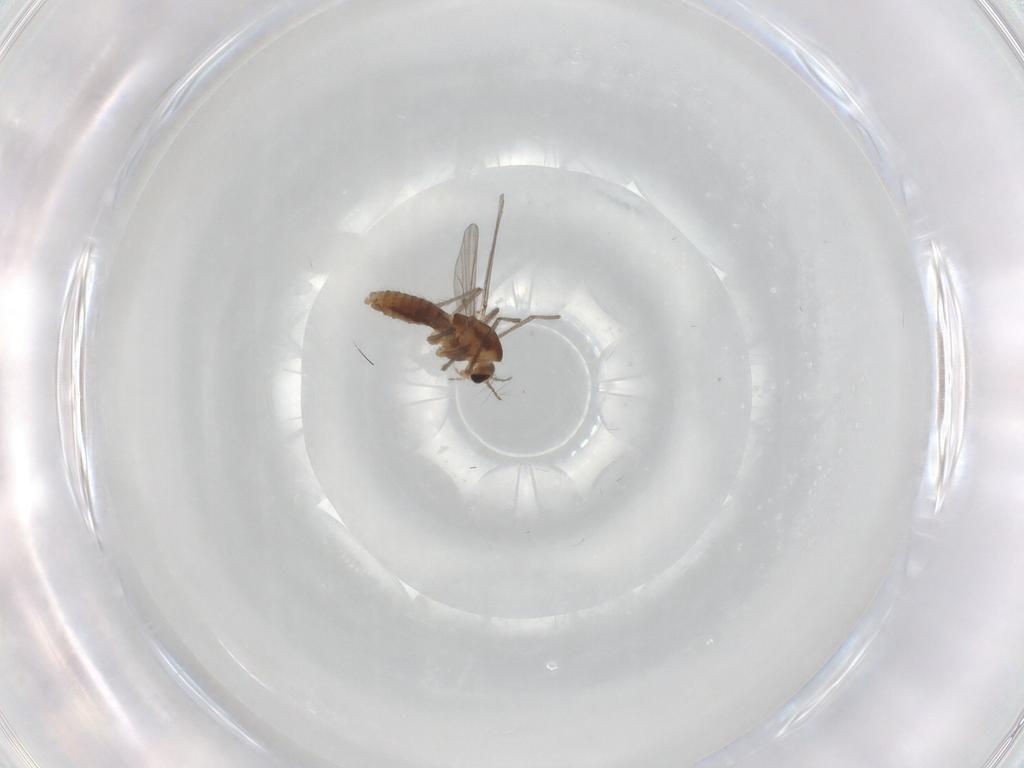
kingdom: Animalia
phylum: Arthropoda
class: Insecta
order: Diptera
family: Chironomidae
